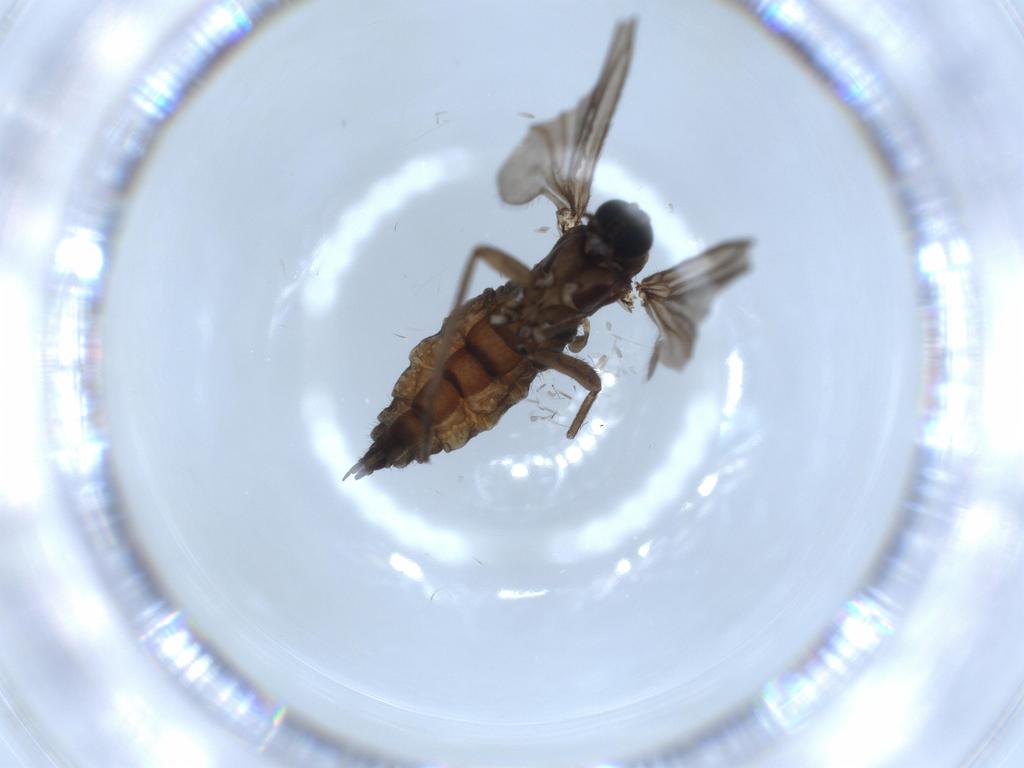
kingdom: Animalia
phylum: Arthropoda
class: Insecta
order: Diptera
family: Sciaridae
